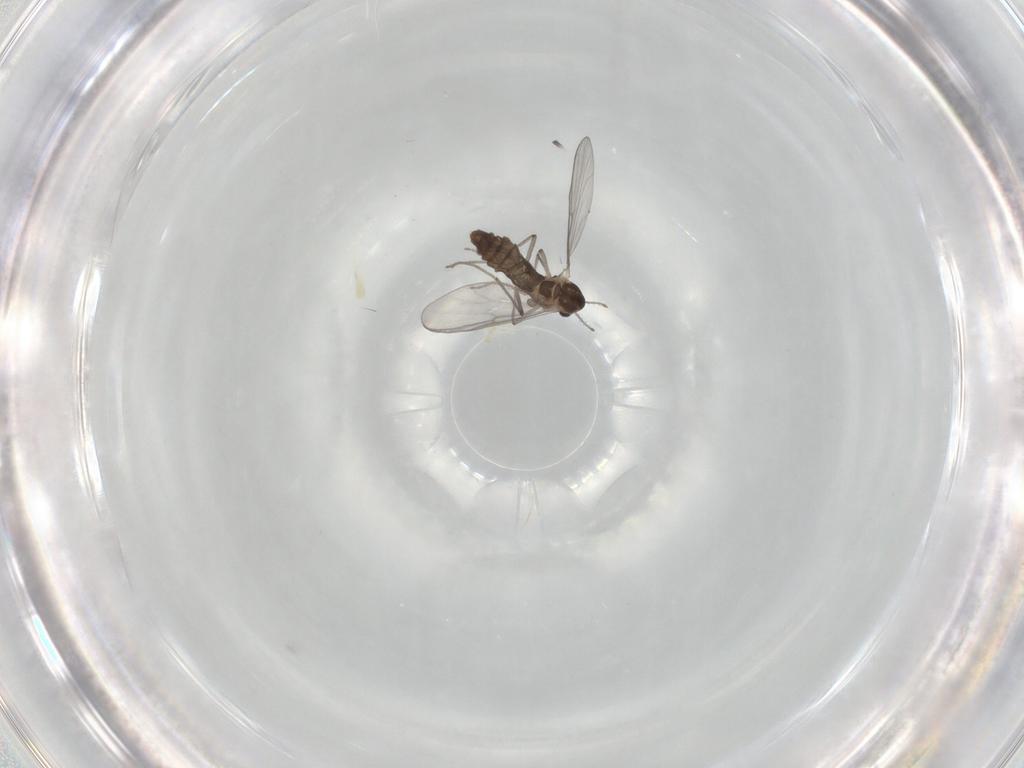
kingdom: Animalia
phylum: Arthropoda
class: Insecta
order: Diptera
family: Chironomidae
